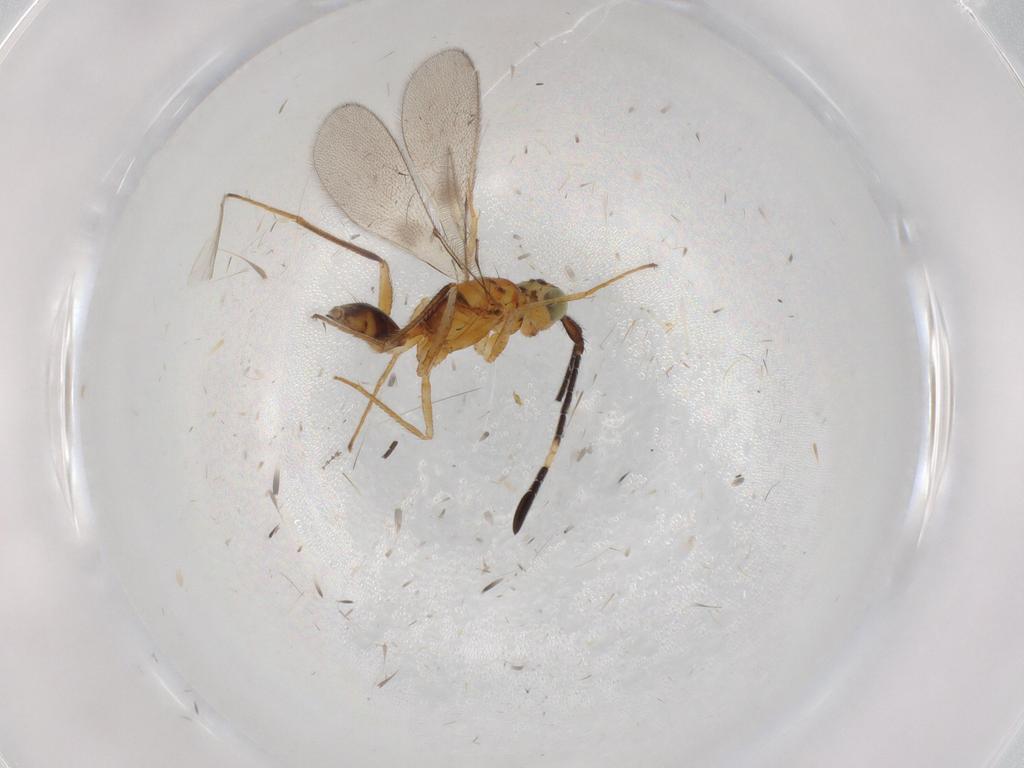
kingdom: Animalia
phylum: Arthropoda
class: Insecta
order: Hymenoptera
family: Mymaridae
